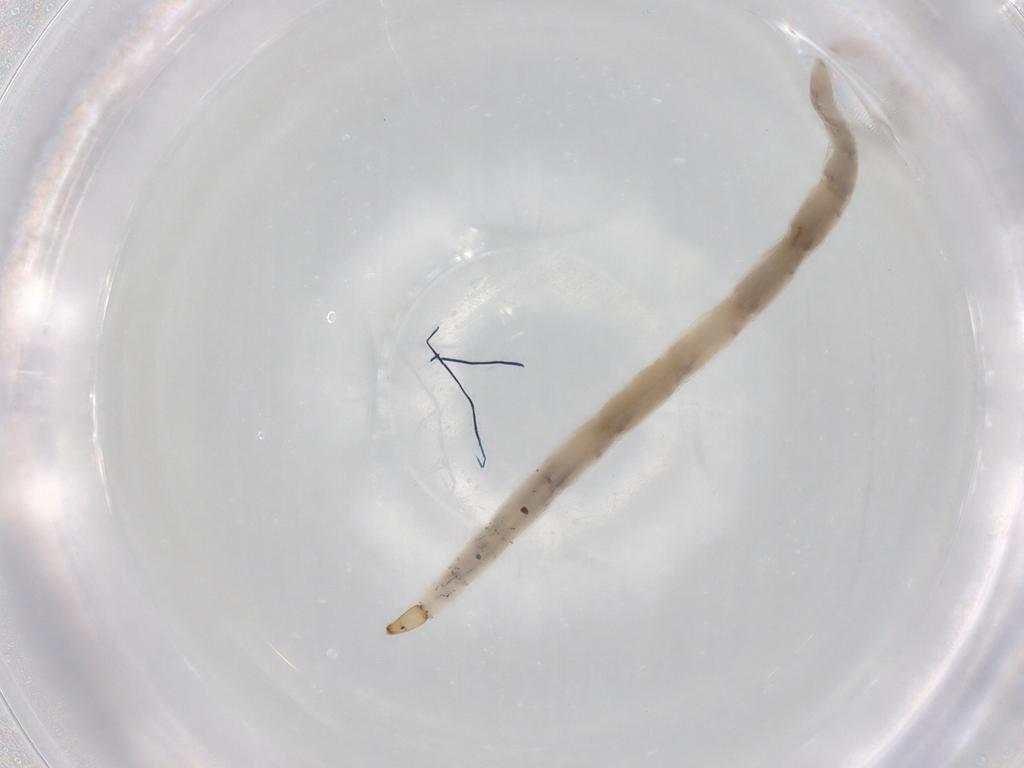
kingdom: Animalia
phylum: Arthropoda
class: Insecta
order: Diptera
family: Ceratopogonidae
